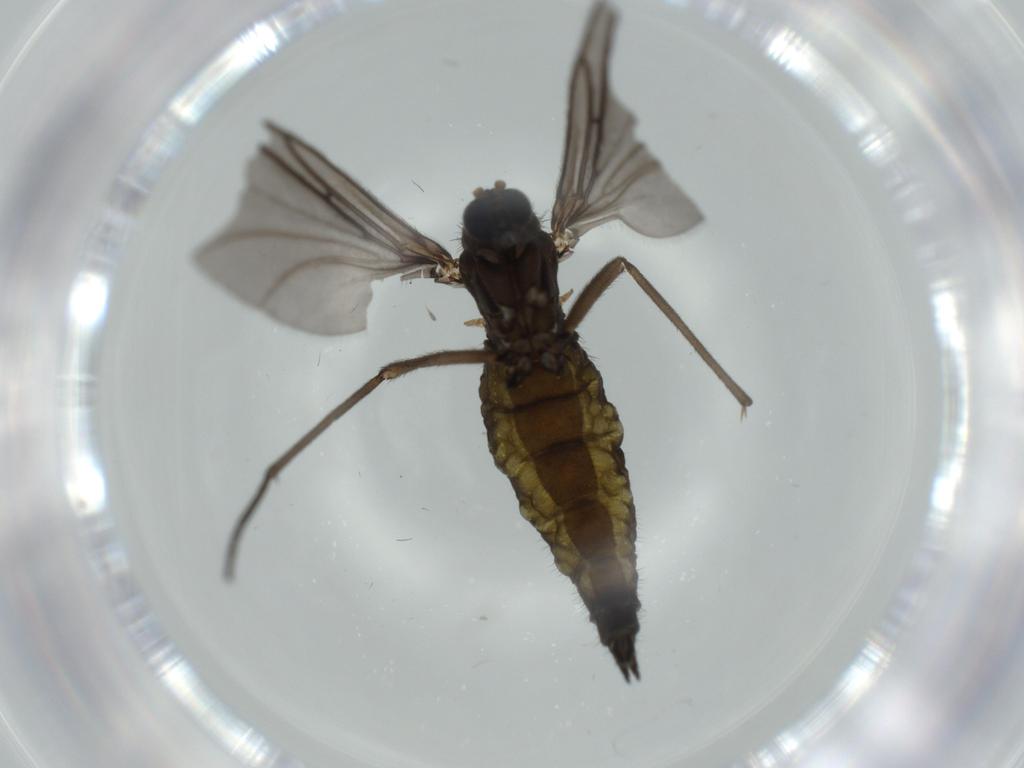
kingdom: Animalia
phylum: Arthropoda
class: Insecta
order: Diptera
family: Sciaridae
